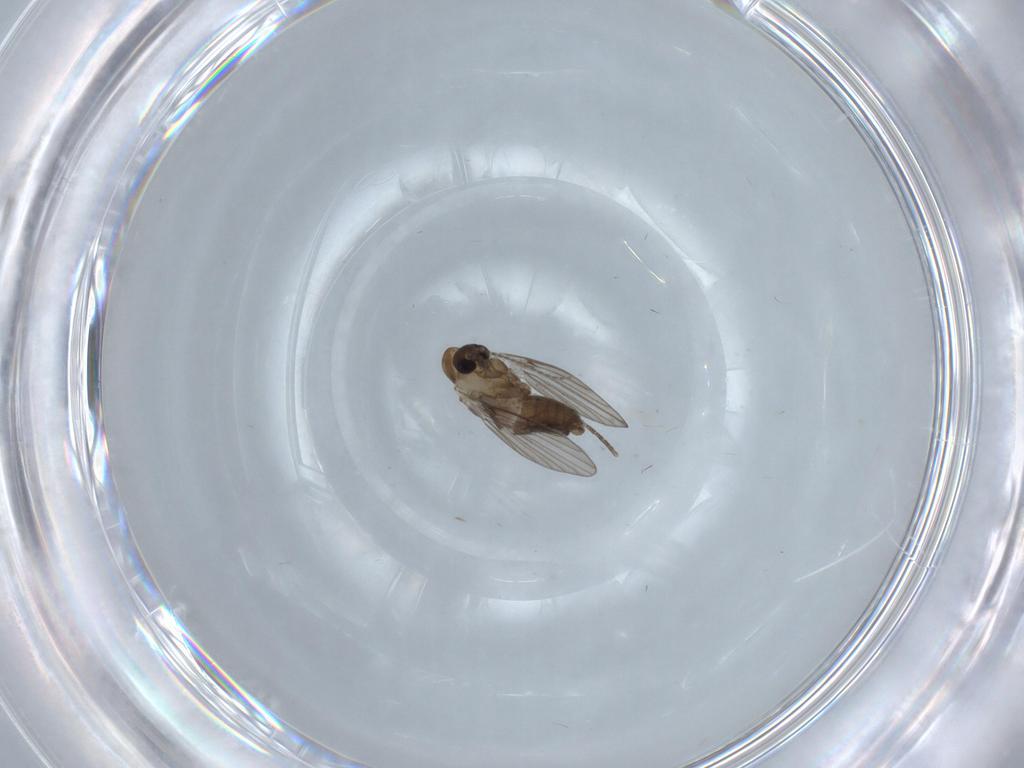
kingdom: Animalia
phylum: Arthropoda
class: Insecta
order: Diptera
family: Psychodidae
